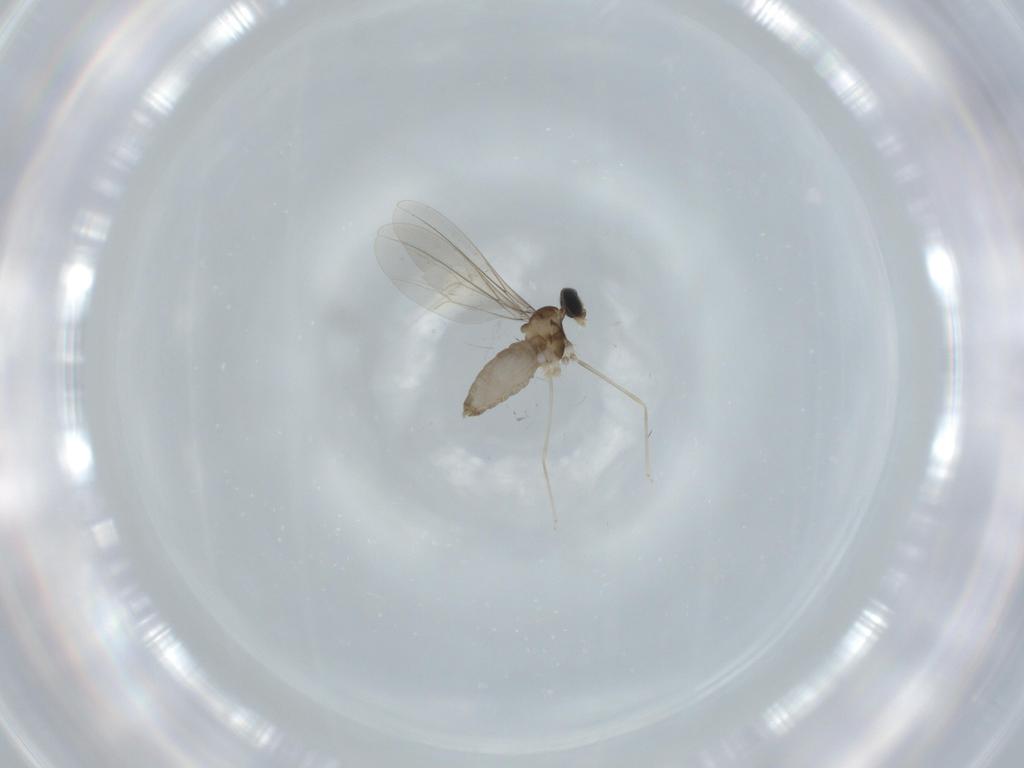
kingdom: Animalia
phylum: Arthropoda
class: Insecta
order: Diptera
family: Cecidomyiidae
